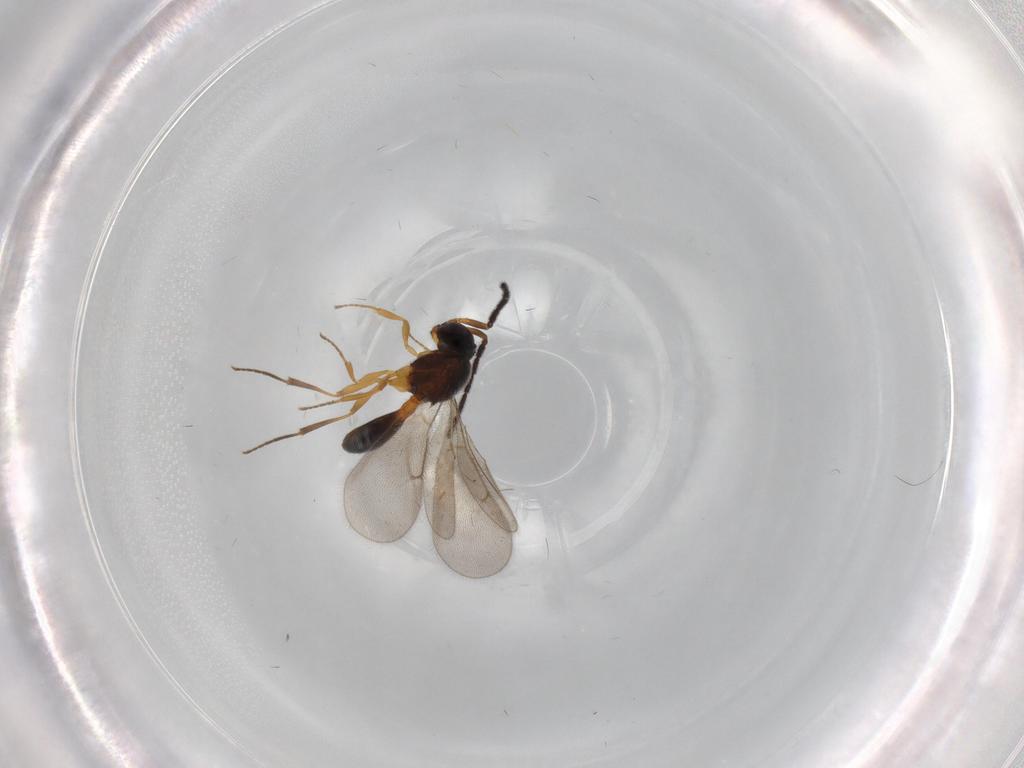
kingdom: Animalia
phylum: Arthropoda
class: Insecta
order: Hymenoptera
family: Scelionidae
